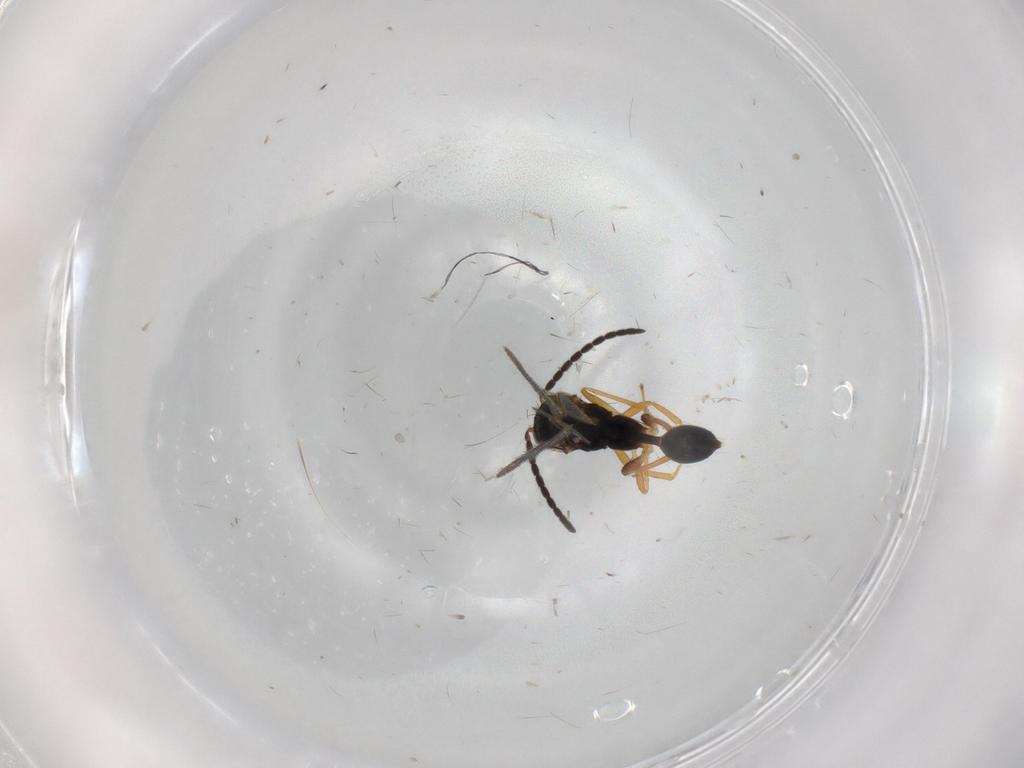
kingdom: Animalia
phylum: Arthropoda
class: Insecta
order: Hymenoptera
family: Diparidae
